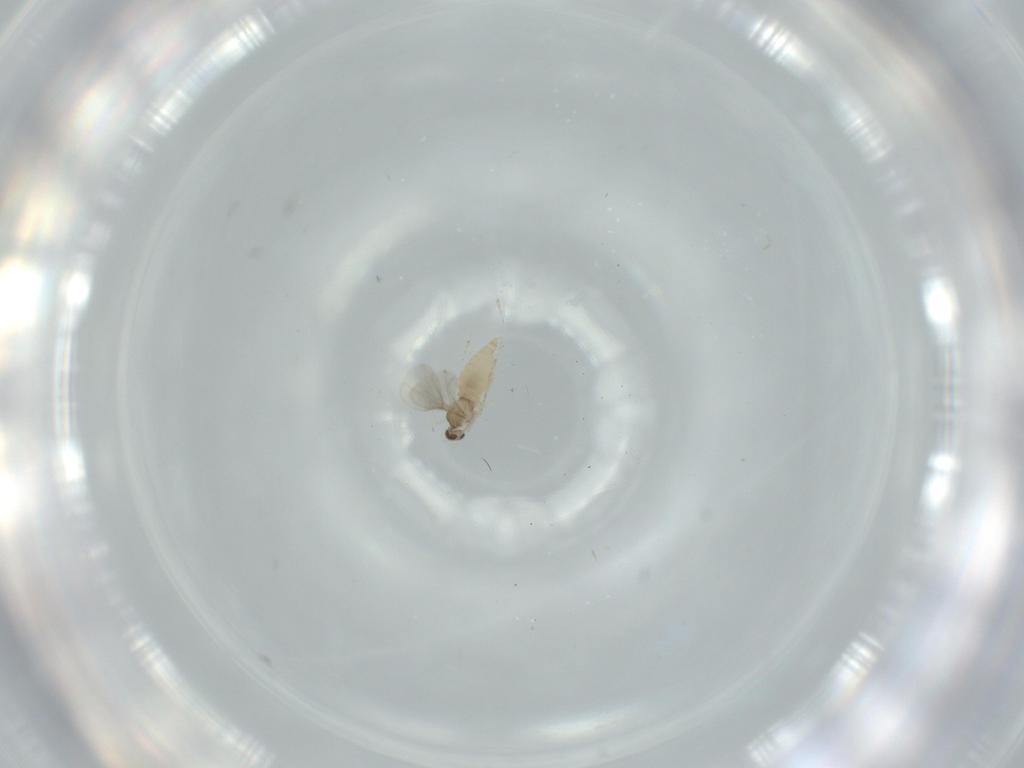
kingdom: Animalia
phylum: Arthropoda
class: Insecta
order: Diptera
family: Cecidomyiidae
